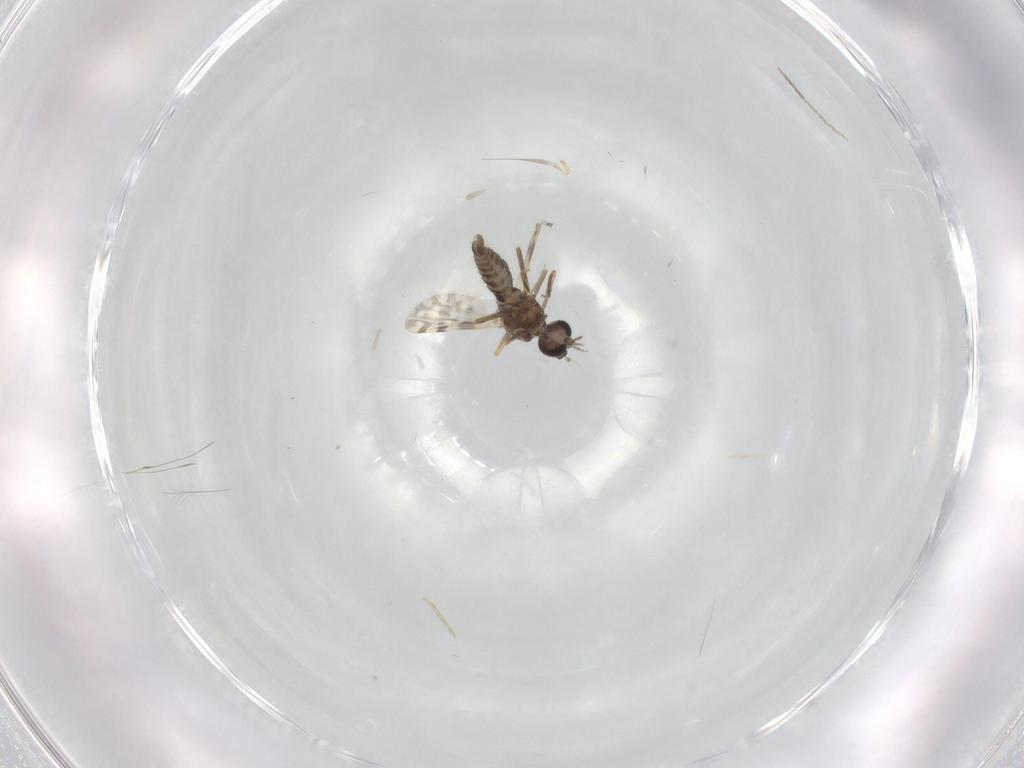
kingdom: Animalia
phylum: Arthropoda
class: Insecta
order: Diptera
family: Ceratopogonidae
